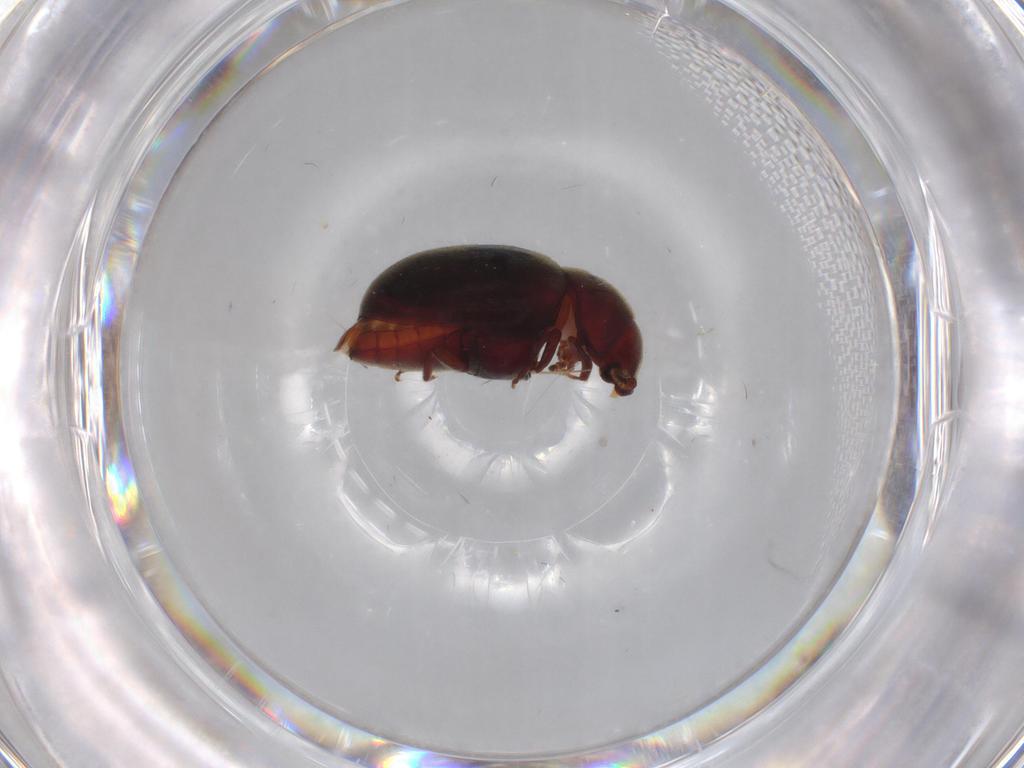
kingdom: Animalia
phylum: Arthropoda
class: Insecta
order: Coleoptera
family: Ptinidae
